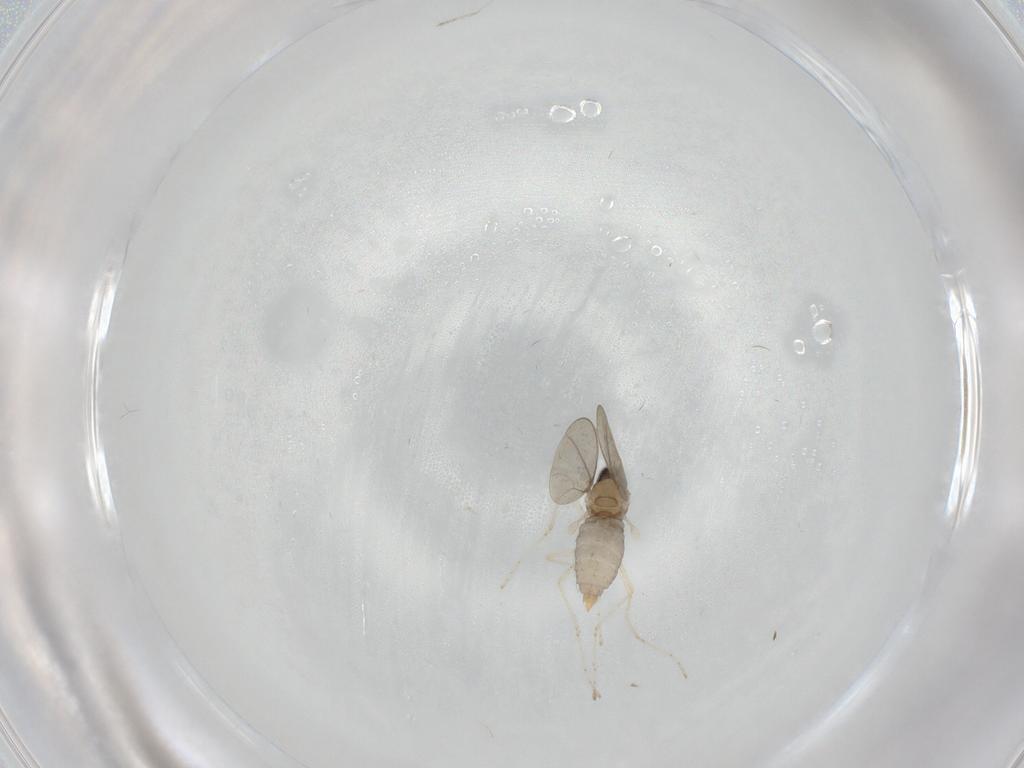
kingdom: Animalia
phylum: Arthropoda
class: Insecta
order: Diptera
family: Cecidomyiidae
